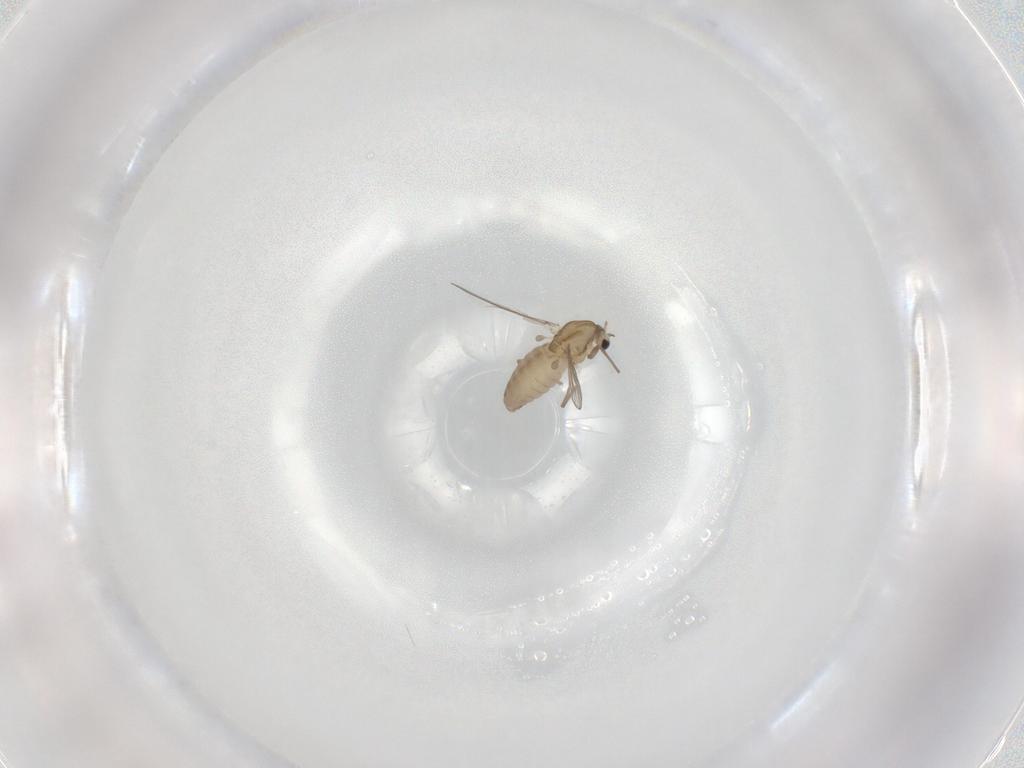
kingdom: Animalia
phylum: Arthropoda
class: Insecta
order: Diptera
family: Chironomidae
